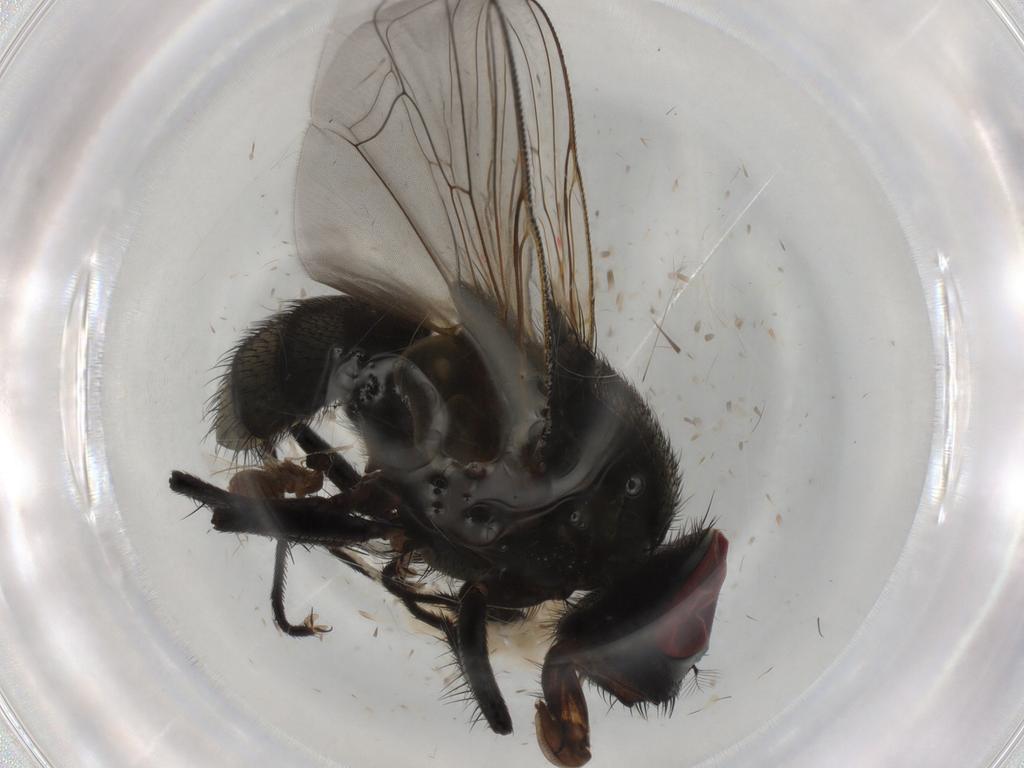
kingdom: Animalia
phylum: Arthropoda
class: Insecta
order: Diptera
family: Muscidae
